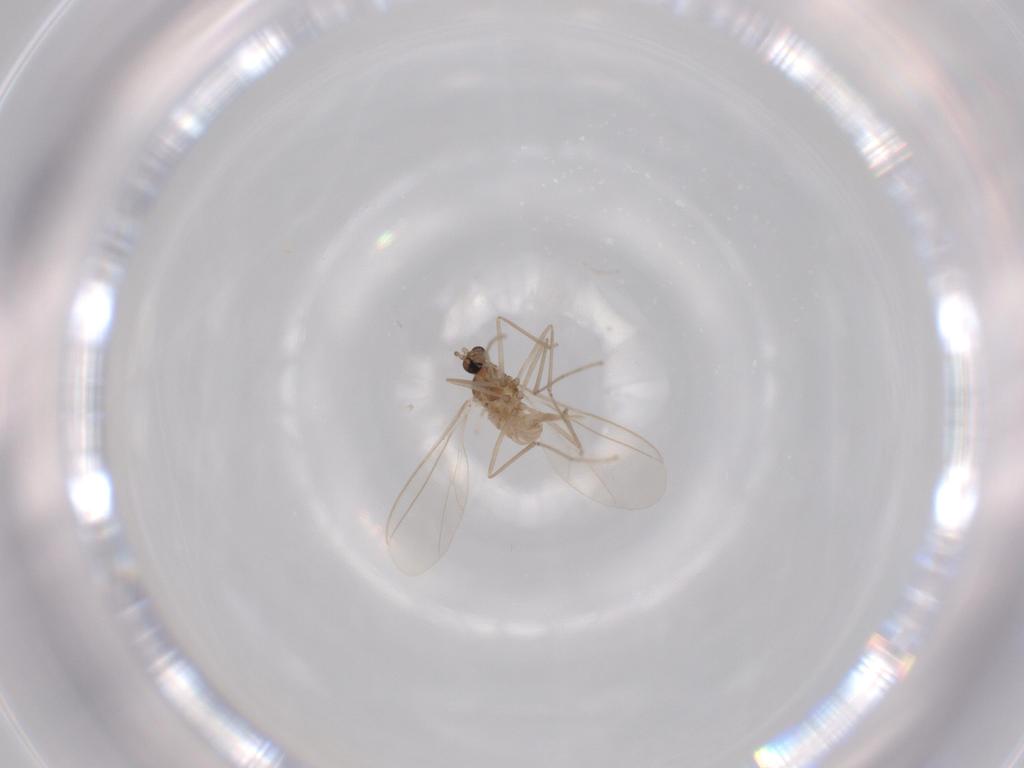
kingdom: Animalia
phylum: Arthropoda
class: Insecta
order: Diptera
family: Cecidomyiidae
